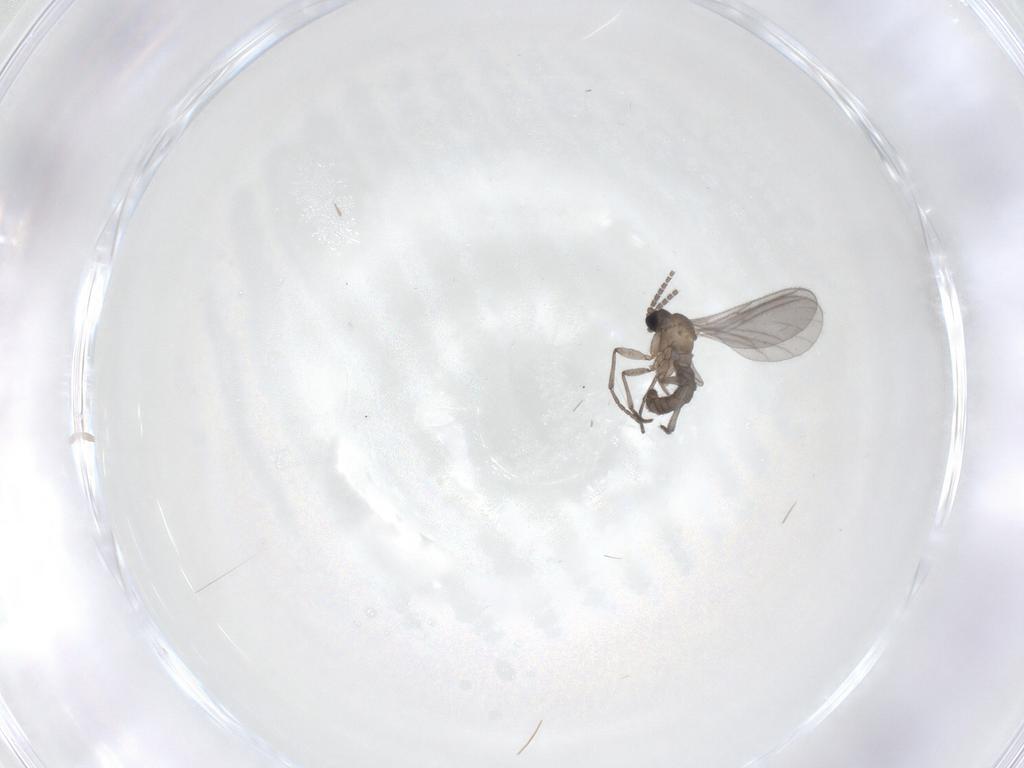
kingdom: Animalia
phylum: Arthropoda
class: Insecta
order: Diptera
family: Sciaridae
